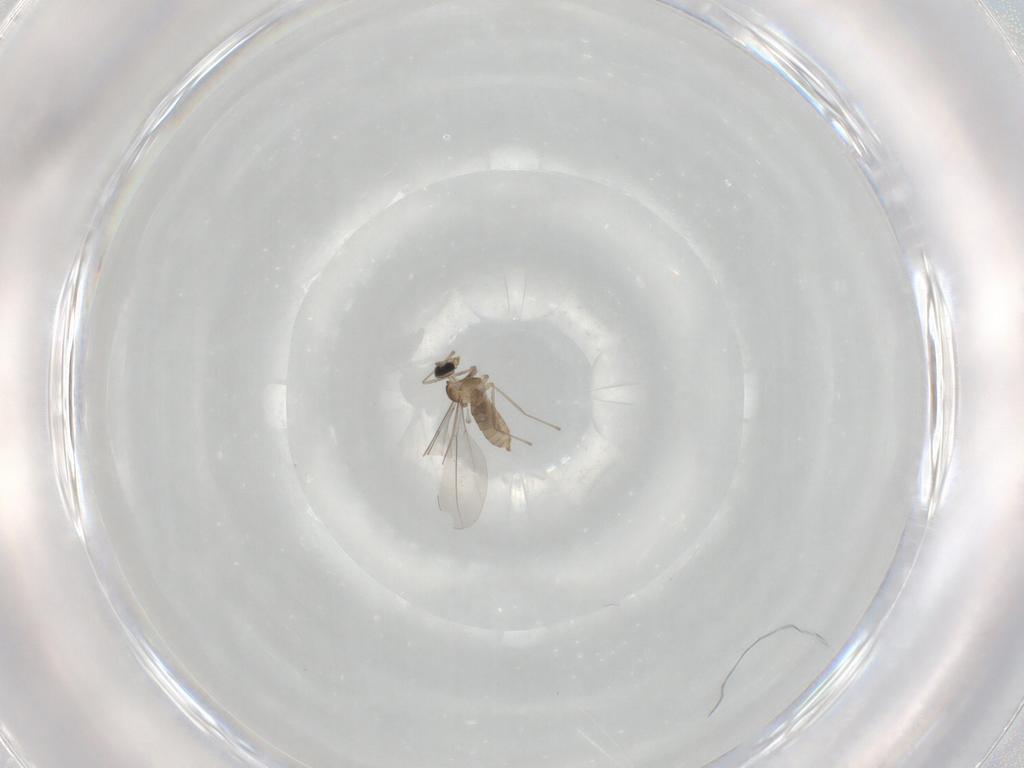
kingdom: Animalia
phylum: Arthropoda
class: Insecta
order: Diptera
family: Cecidomyiidae
